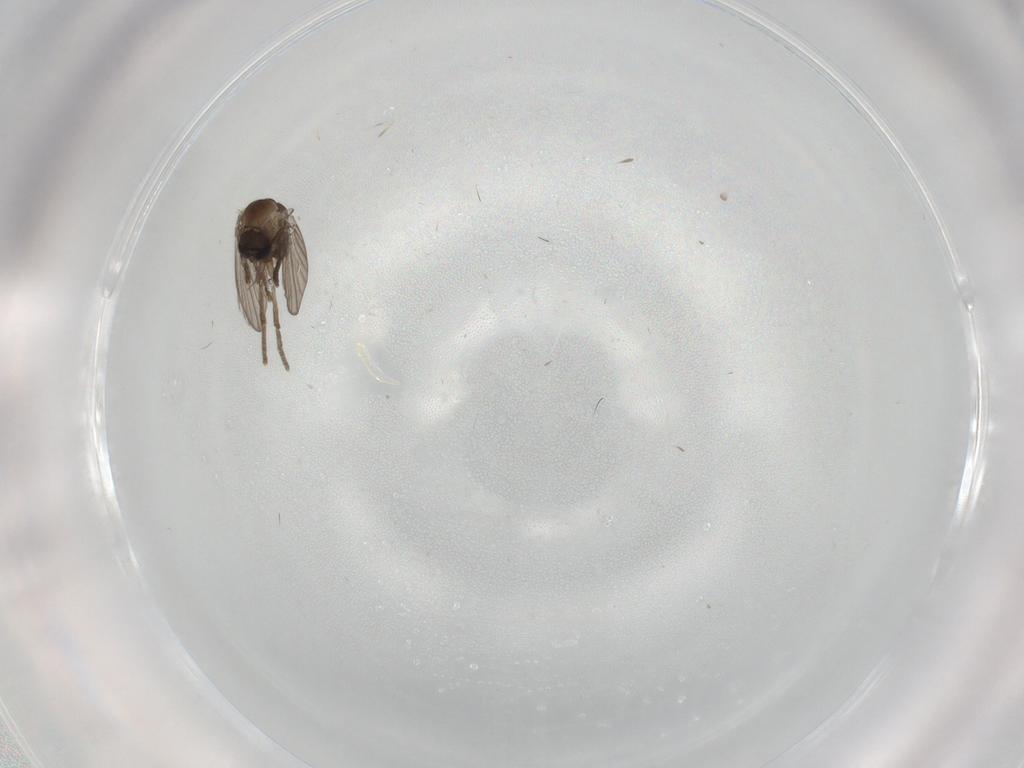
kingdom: Animalia
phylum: Arthropoda
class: Insecta
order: Diptera
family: Psychodidae
